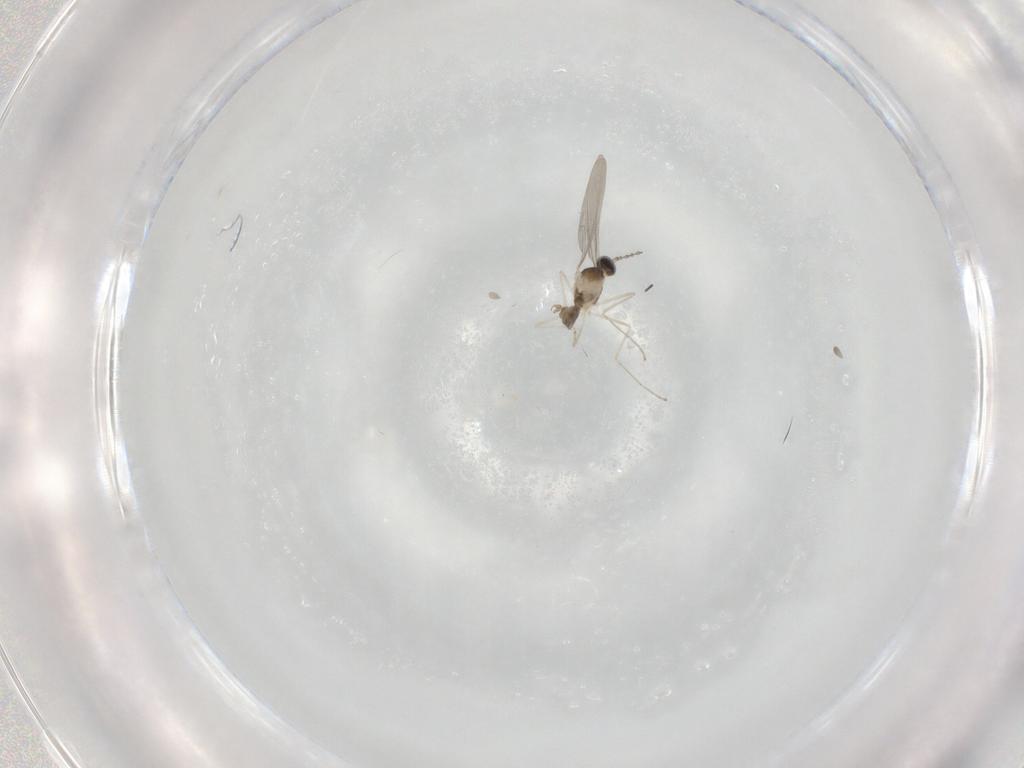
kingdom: Animalia
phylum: Arthropoda
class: Insecta
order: Diptera
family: Cecidomyiidae
